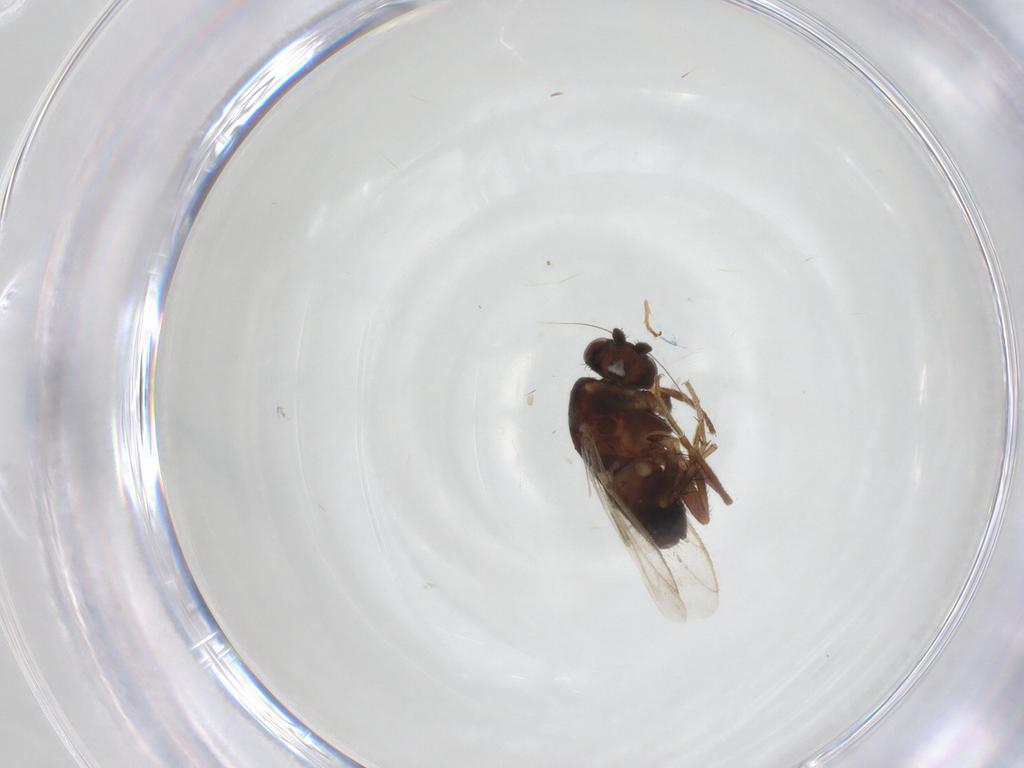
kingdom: Animalia
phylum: Arthropoda
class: Insecta
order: Diptera
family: Sphaeroceridae
